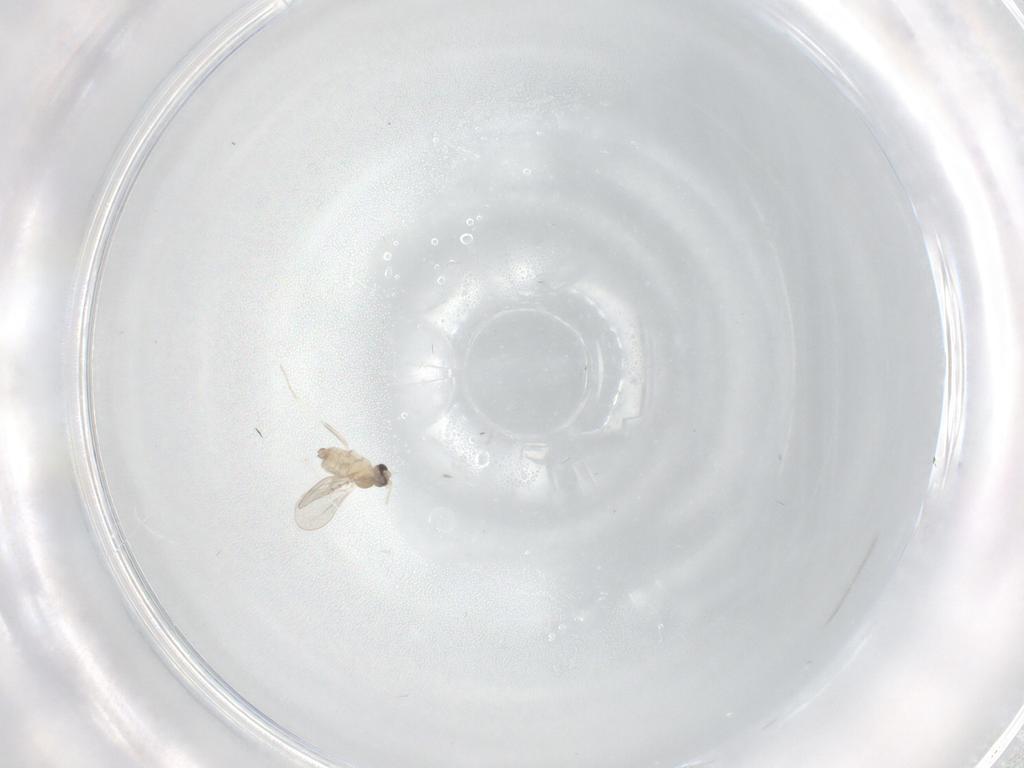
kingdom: Animalia
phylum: Arthropoda
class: Insecta
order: Diptera
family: Cecidomyiidae
